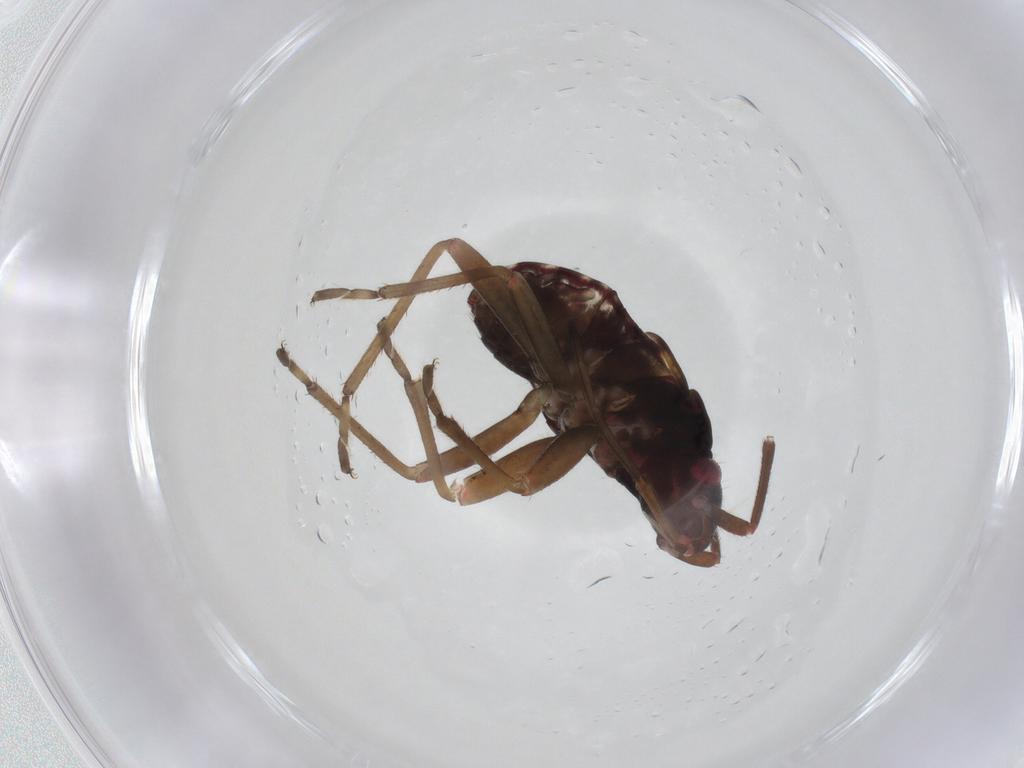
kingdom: Animalia
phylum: Arthropoda
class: Insecta
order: Hemiptera
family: Rhyparochromidae
